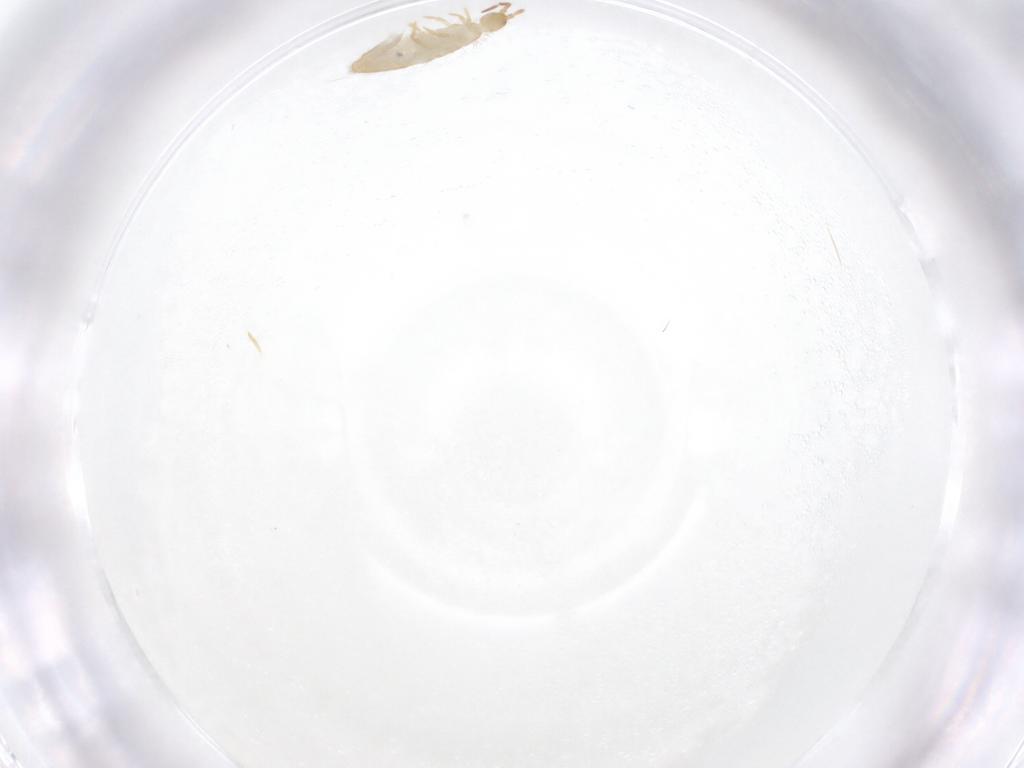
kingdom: Animalia
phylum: Arthropoda
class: Collembola
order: Entomobryomorpha
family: Entomobryidae
